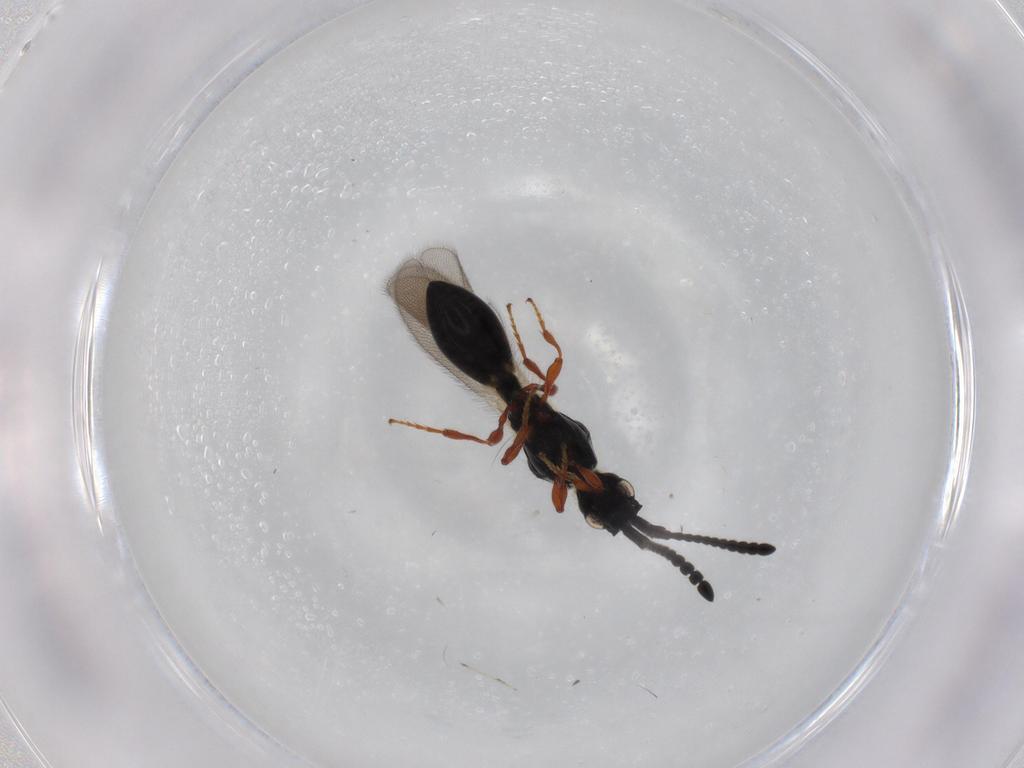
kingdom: Animalia
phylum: Arthropoda
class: Insecta
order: Hymenoptera
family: Diapriidae
